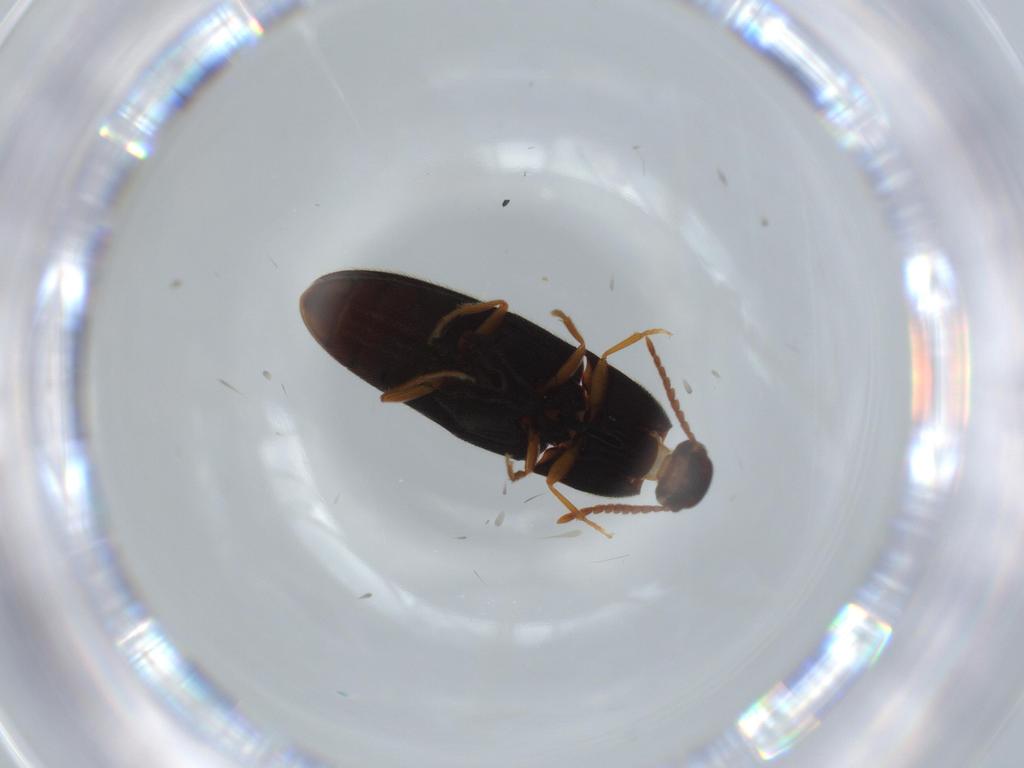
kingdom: Animalia
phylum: Arthropoda
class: Insecta
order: Coleoptera
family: Elateridae
